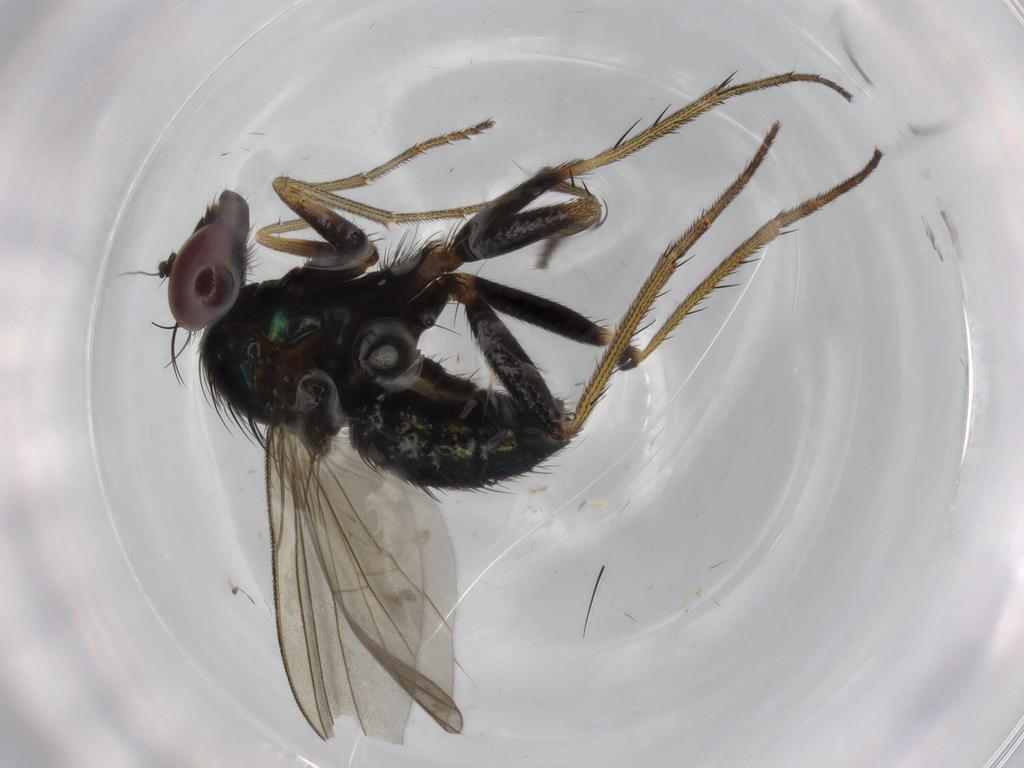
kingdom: Animalia
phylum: Arthropoda
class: Insecta
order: Diptera
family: Dolichopodidae
